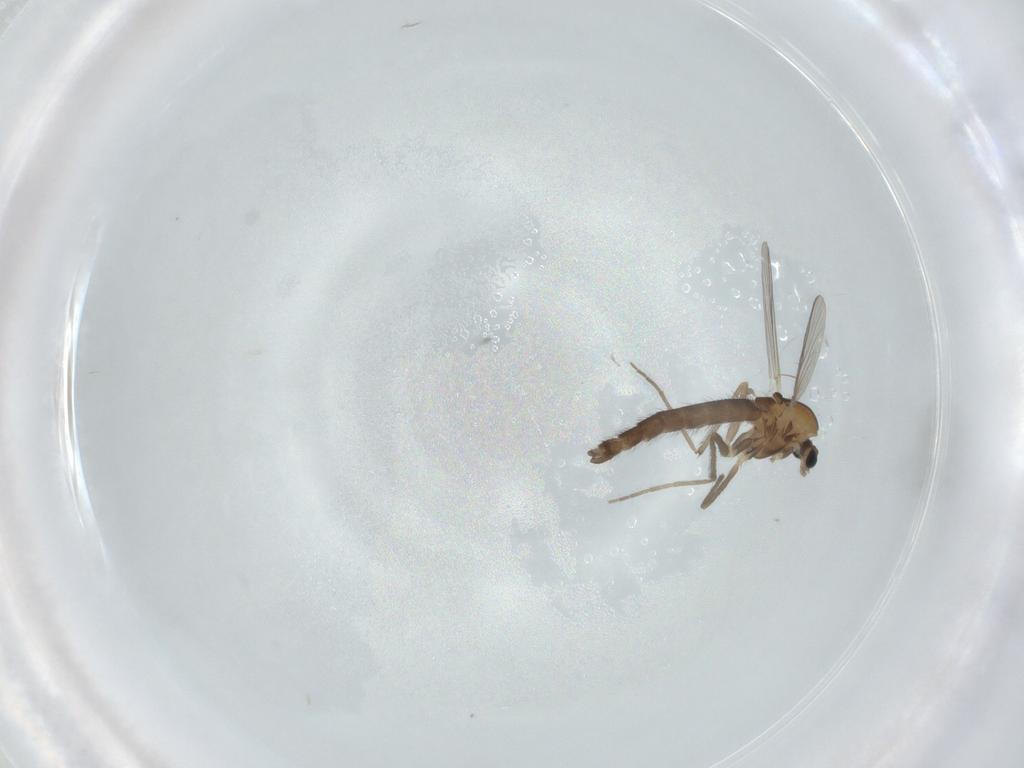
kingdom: Animalia
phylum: Arthropoda
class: Insecta
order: Diptera
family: Chironomidae
